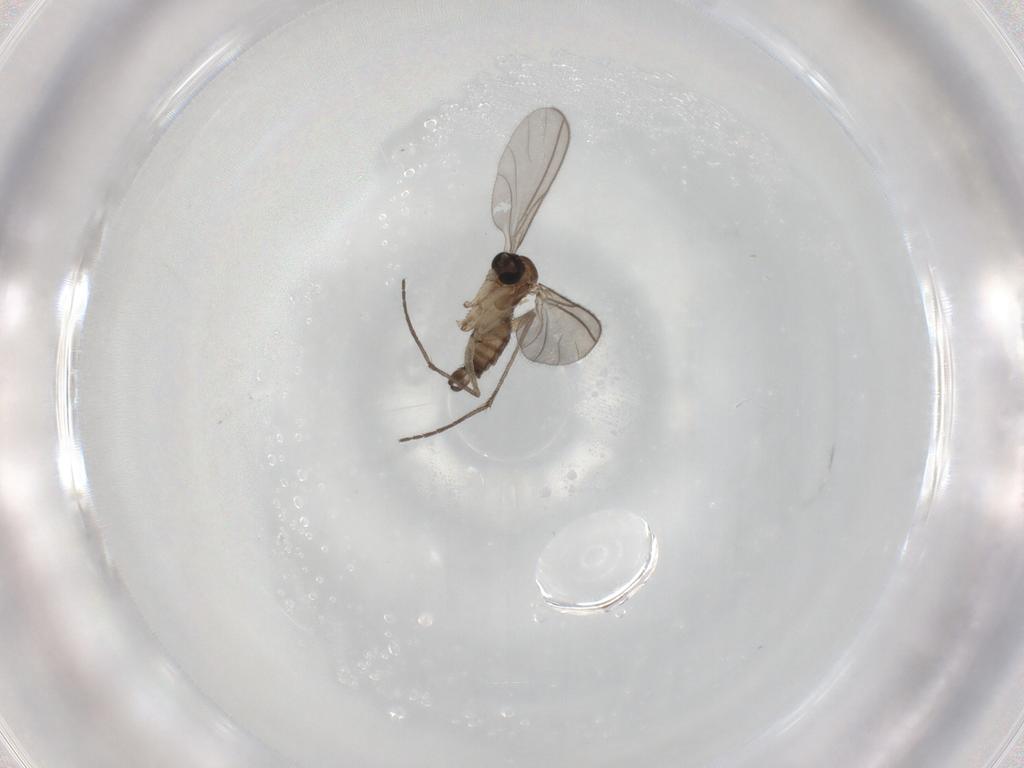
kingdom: Animalia
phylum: Arthropoda
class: Insecta
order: Diptera
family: Sciaridae
